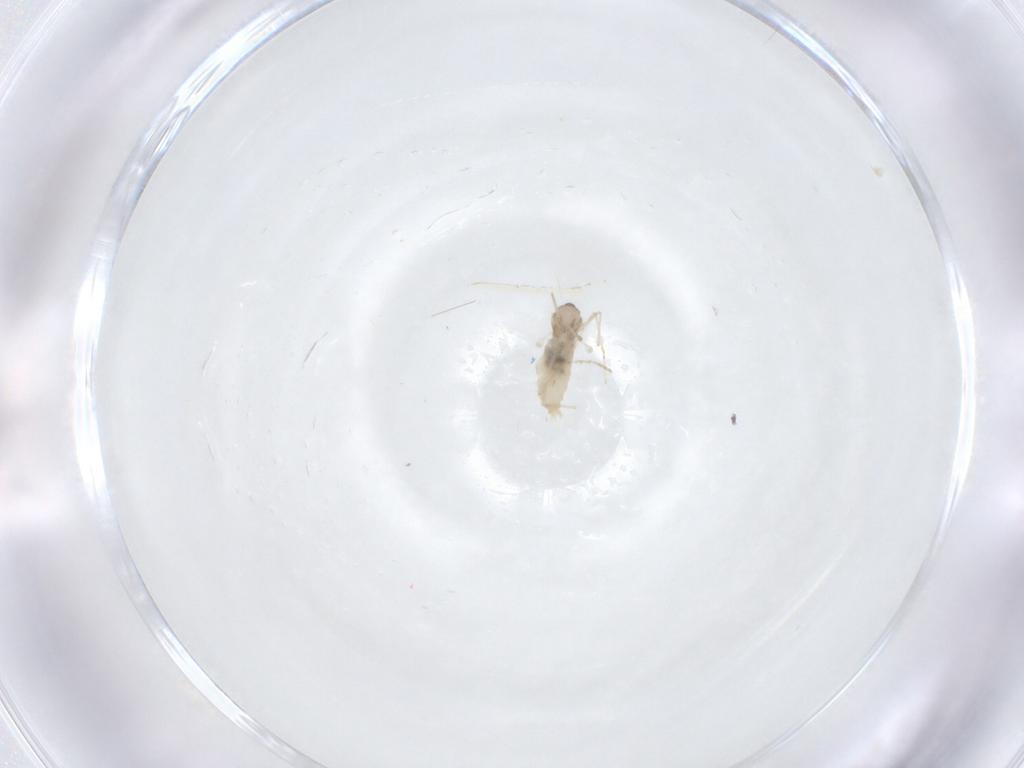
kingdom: Animalia
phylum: Arthropoda
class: Insecta
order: Diptera
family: Cecidomyiidae
